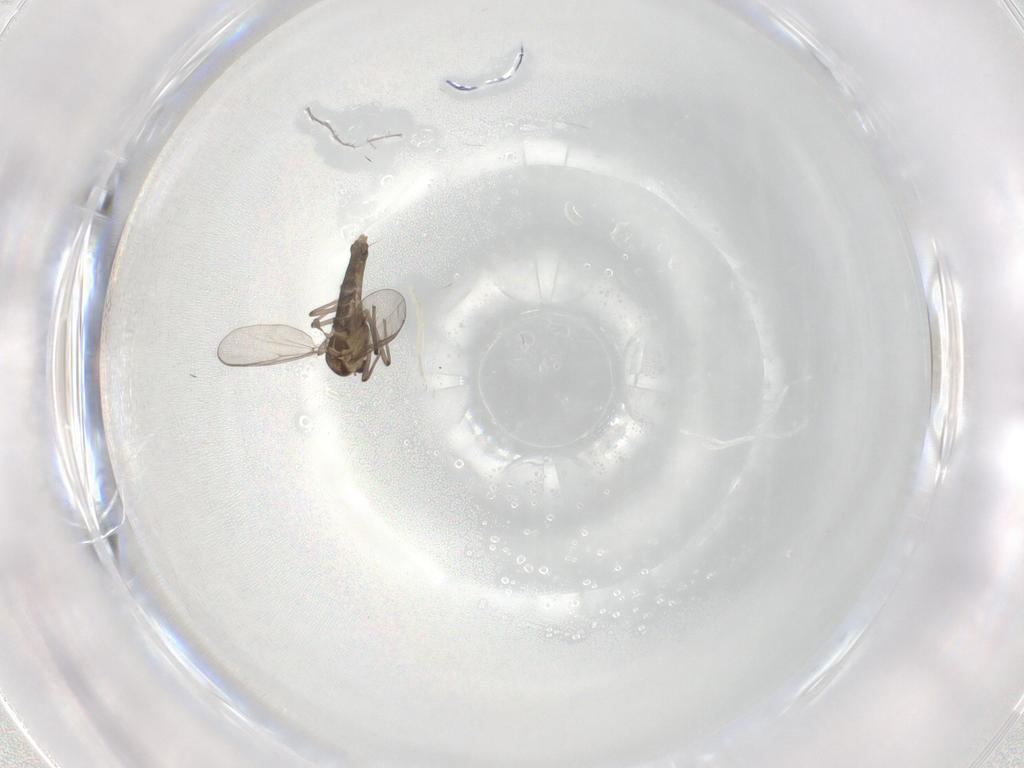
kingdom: Animalia
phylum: Arthropoda
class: Insecta
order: Diptera
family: Chironomidae
